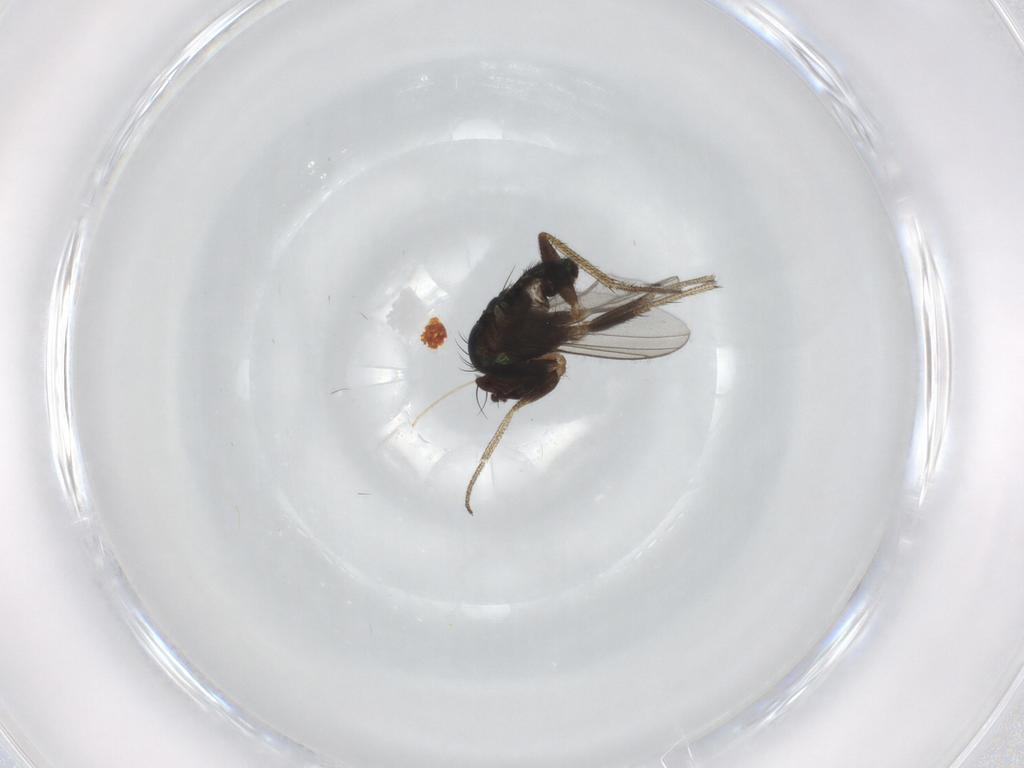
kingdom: Animalia
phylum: Arthropoda
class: Insecta
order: Diptera
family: Dolichopodidae
